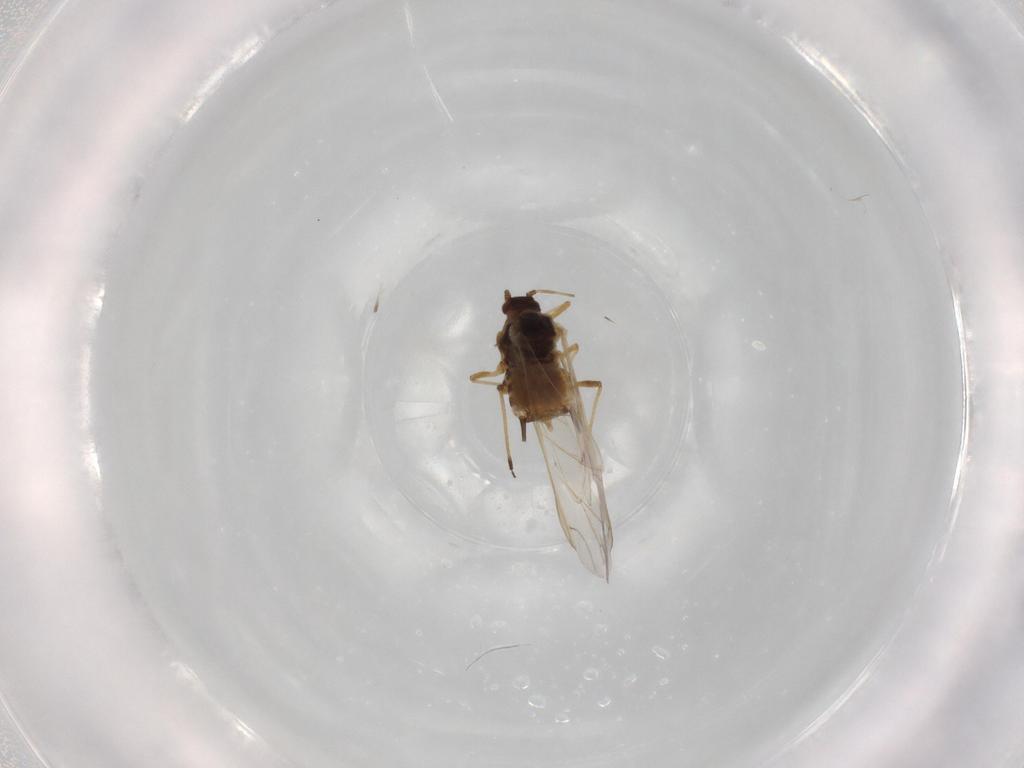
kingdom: Animalia
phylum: Arthropoda
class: Insecta
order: Hemiptera
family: Aphididae
